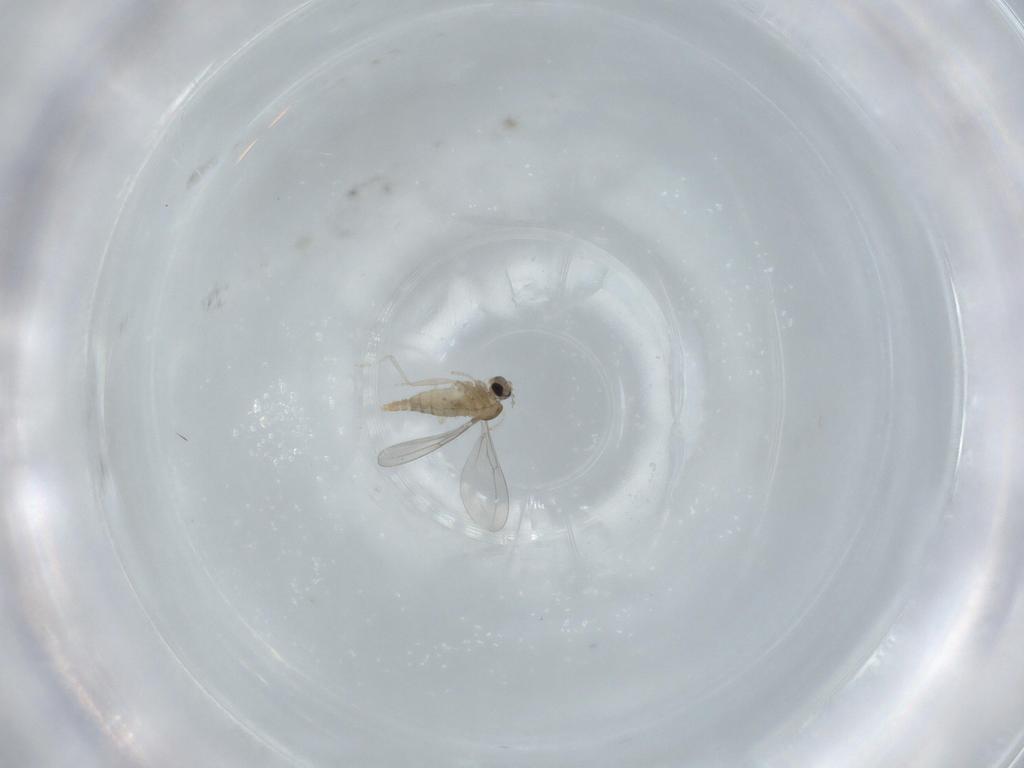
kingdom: Animalia
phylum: Arthropoda
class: Insecta
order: Diptera
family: Cecidomyiidae
